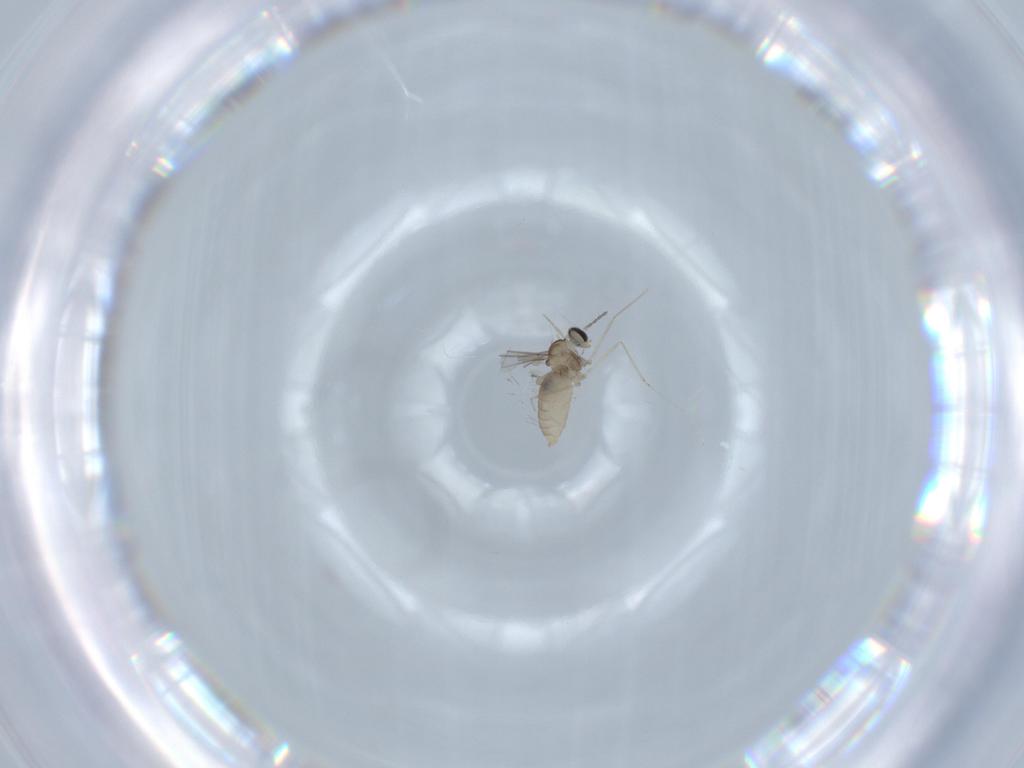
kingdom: Animalia
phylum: Arthropoda
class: Insecta
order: Diptera
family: Cecidomyiidae
